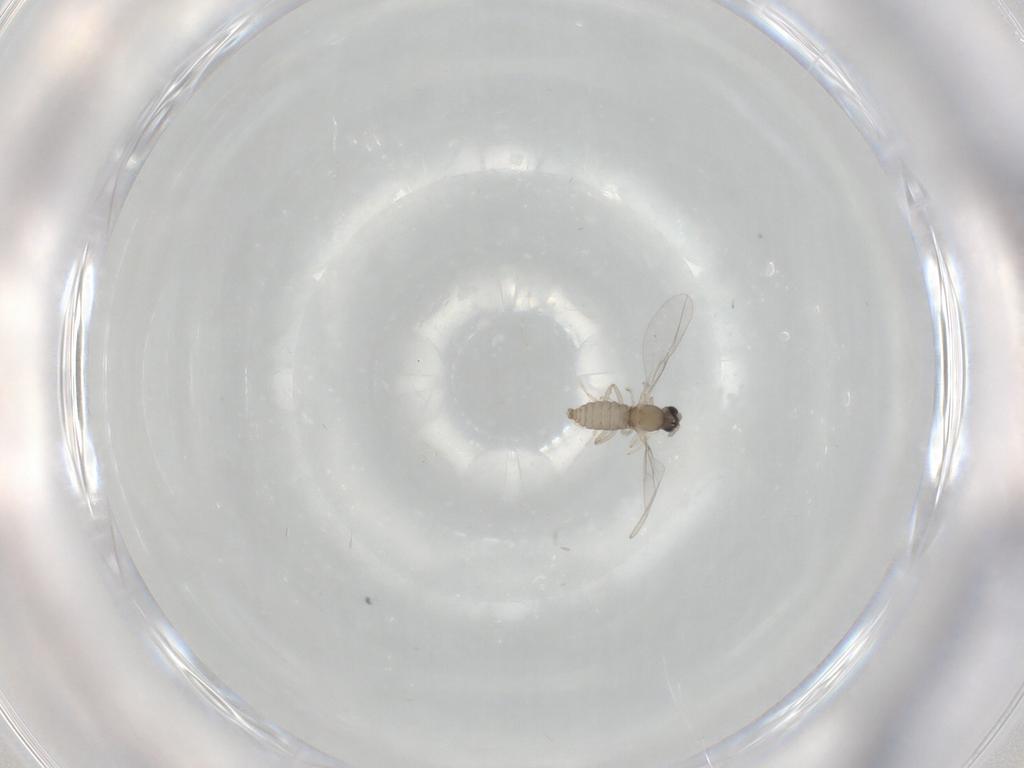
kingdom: Animalia
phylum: Arthropoda
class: Insecta
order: Diptera
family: Cecidomyiidae
